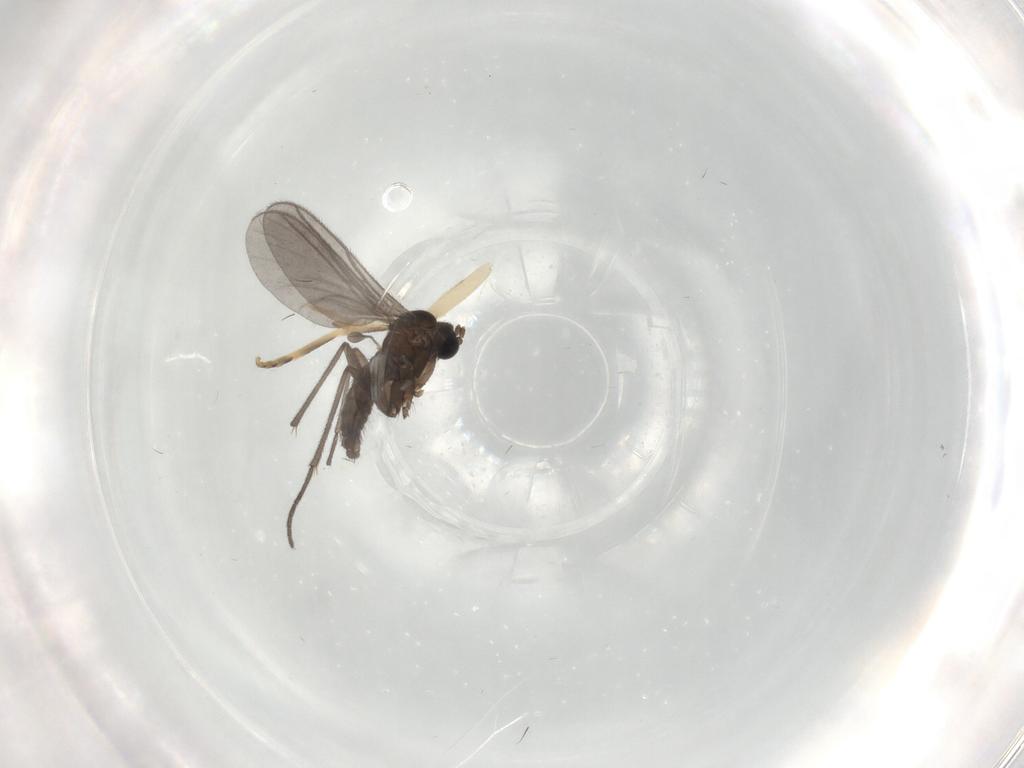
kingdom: Animalia
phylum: Arthropoda
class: Insecta
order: Diptera
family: Sciaridae
